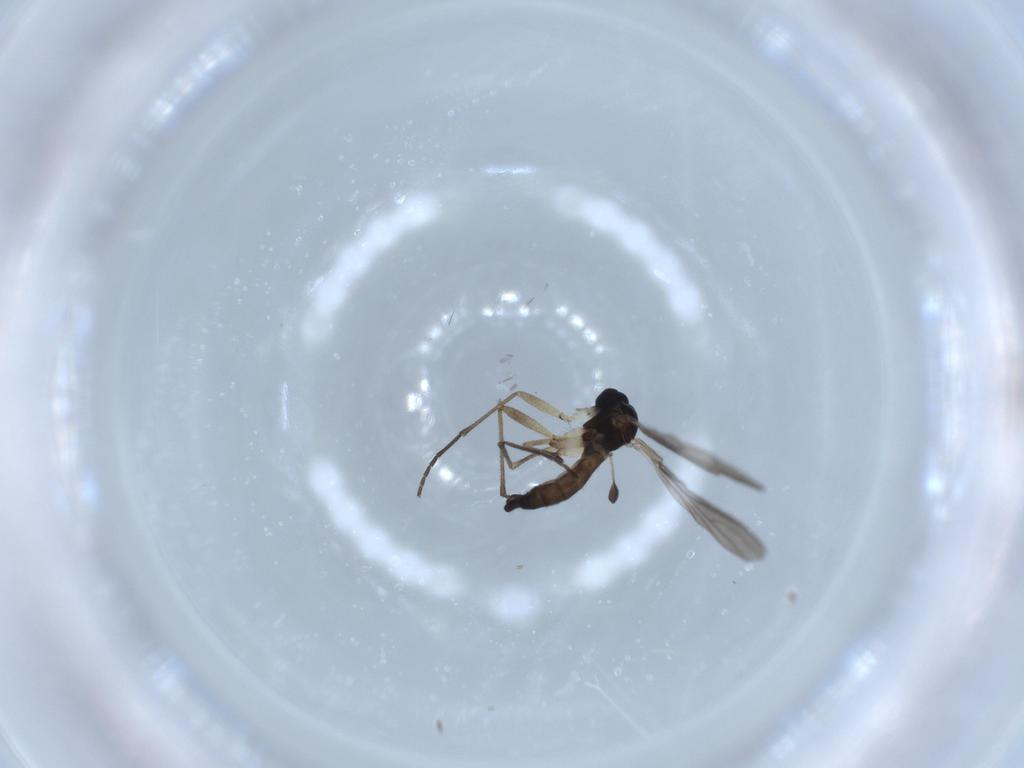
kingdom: Animalia
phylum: Arthropoda
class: Insecta
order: Diptera
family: Sciaridae
